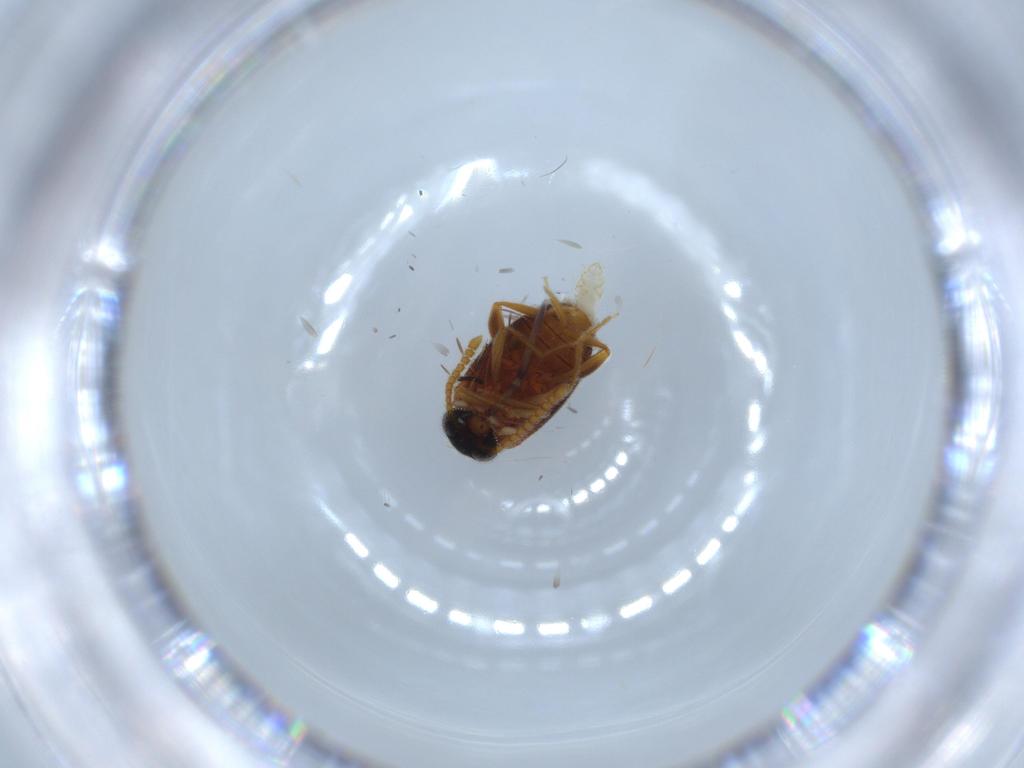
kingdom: Animalia
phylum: Arthropoda
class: Insecta
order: Coleoptera
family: Aderidae
